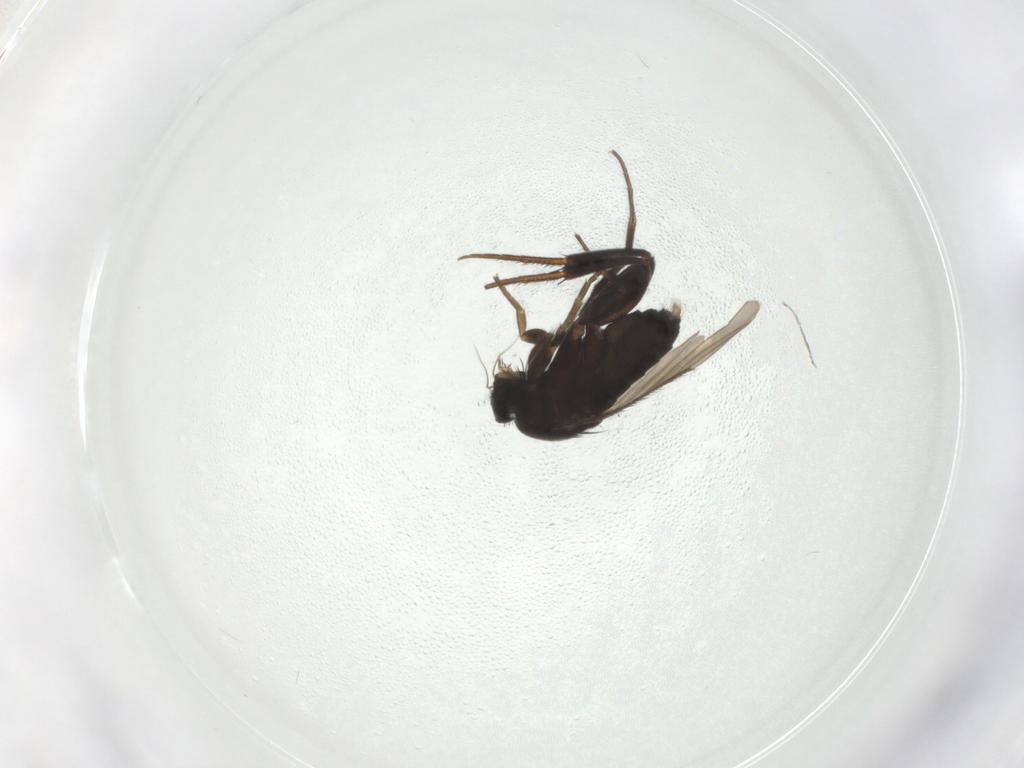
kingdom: Animalia
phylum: Arthropoda
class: Insecta
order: Diptera
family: Phoridae
